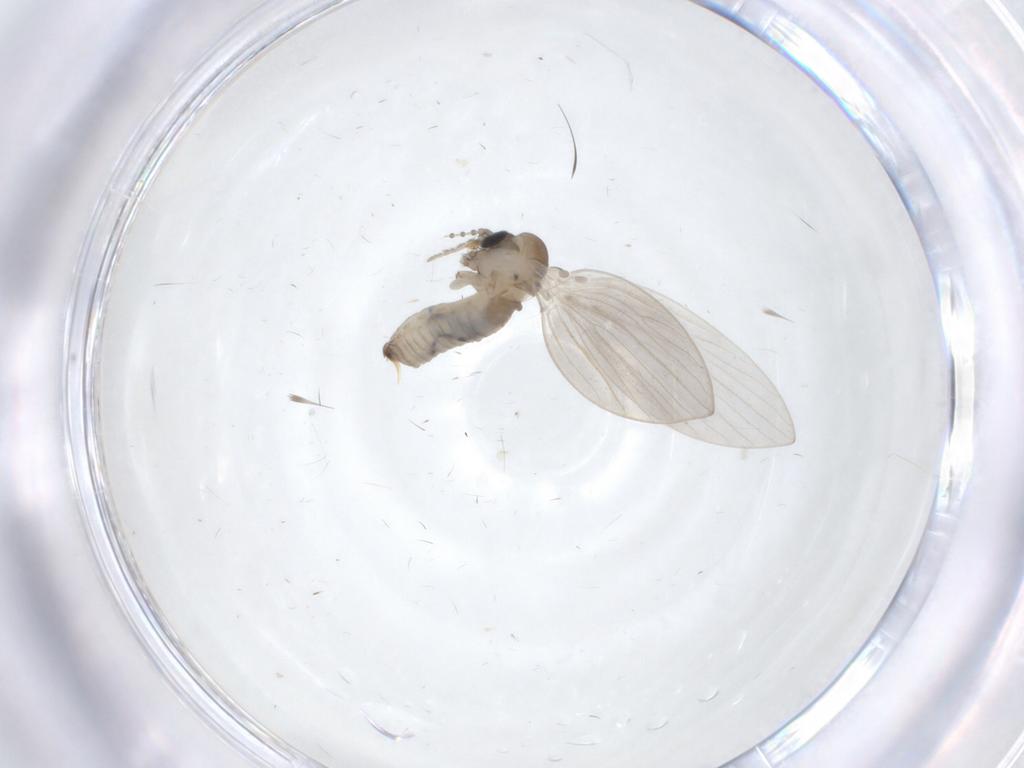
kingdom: Animalia
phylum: Arthropoda
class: Insecta
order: Diptera
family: Psychodidae
